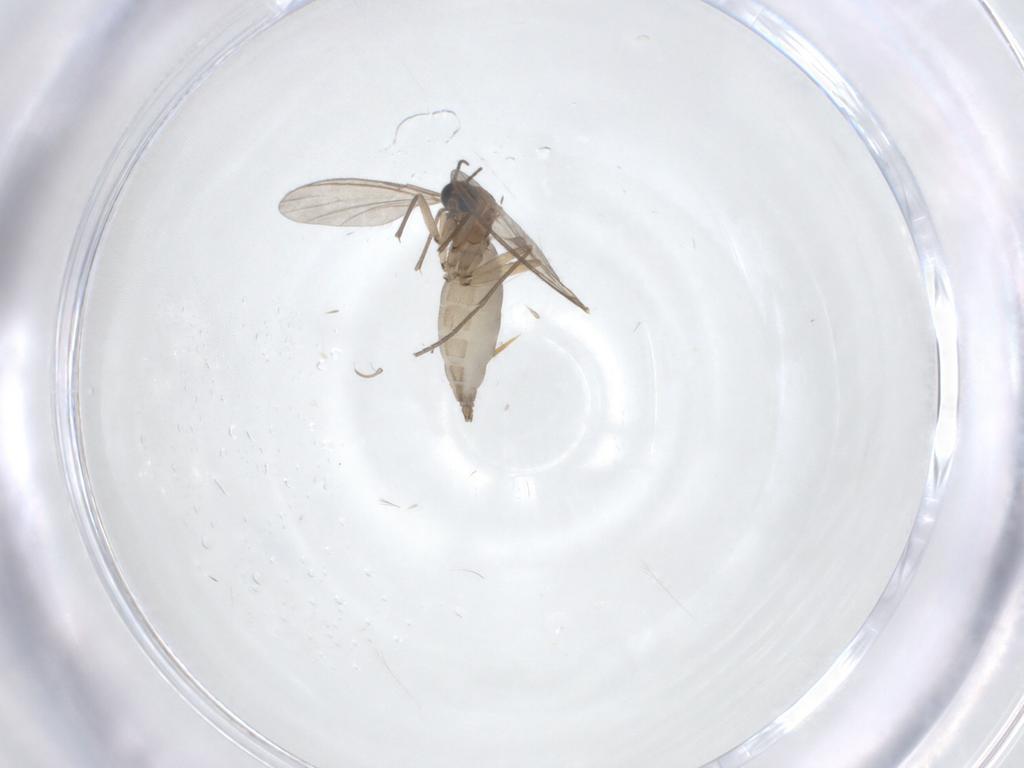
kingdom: Animalia
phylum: Arthropoda
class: Insecta
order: Diptera
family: Sciaridae
